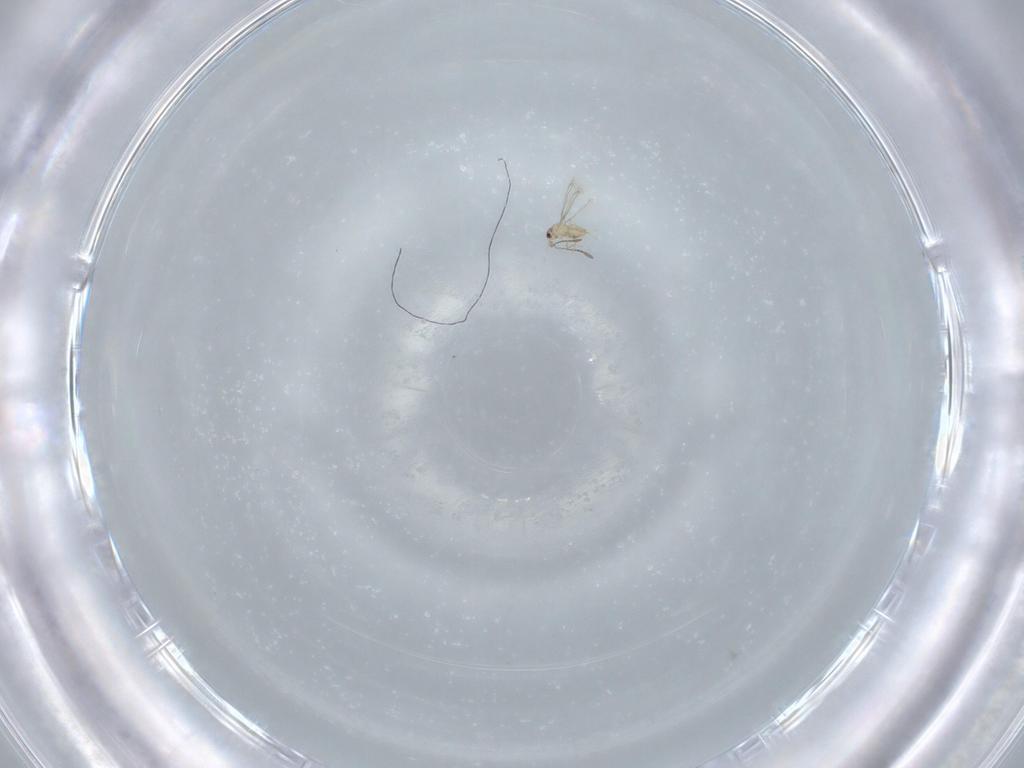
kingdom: Animalia
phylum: Arthropoda
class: Insecta
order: Hymenoptera
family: Mymaridae
